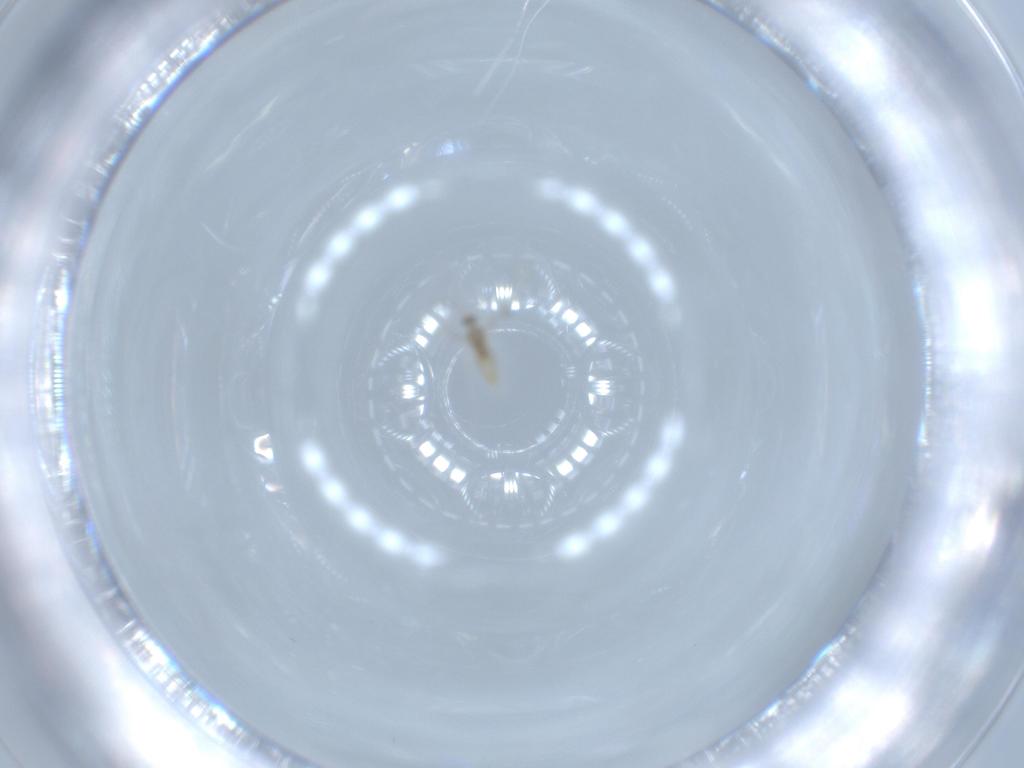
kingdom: Animalia
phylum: Arthropoda
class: Insecta
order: Diptera
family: Cecidomyiidae
